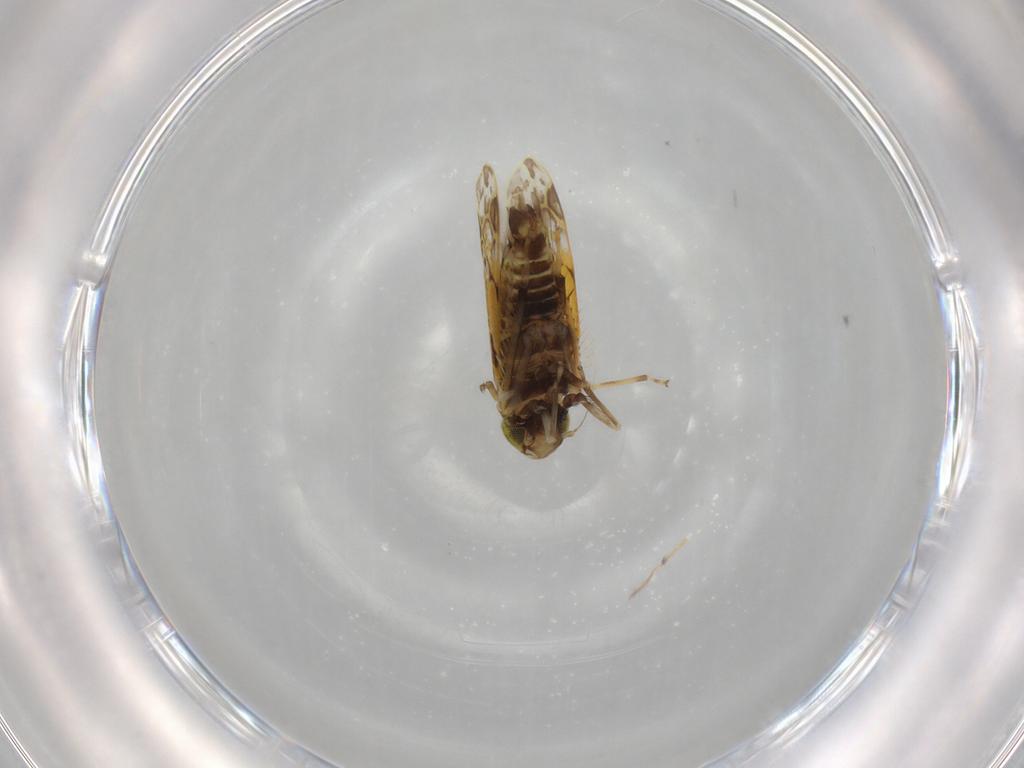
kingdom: Animalia
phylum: Arthropoda
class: Insecta
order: Hemiptera
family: Cicadellidae
